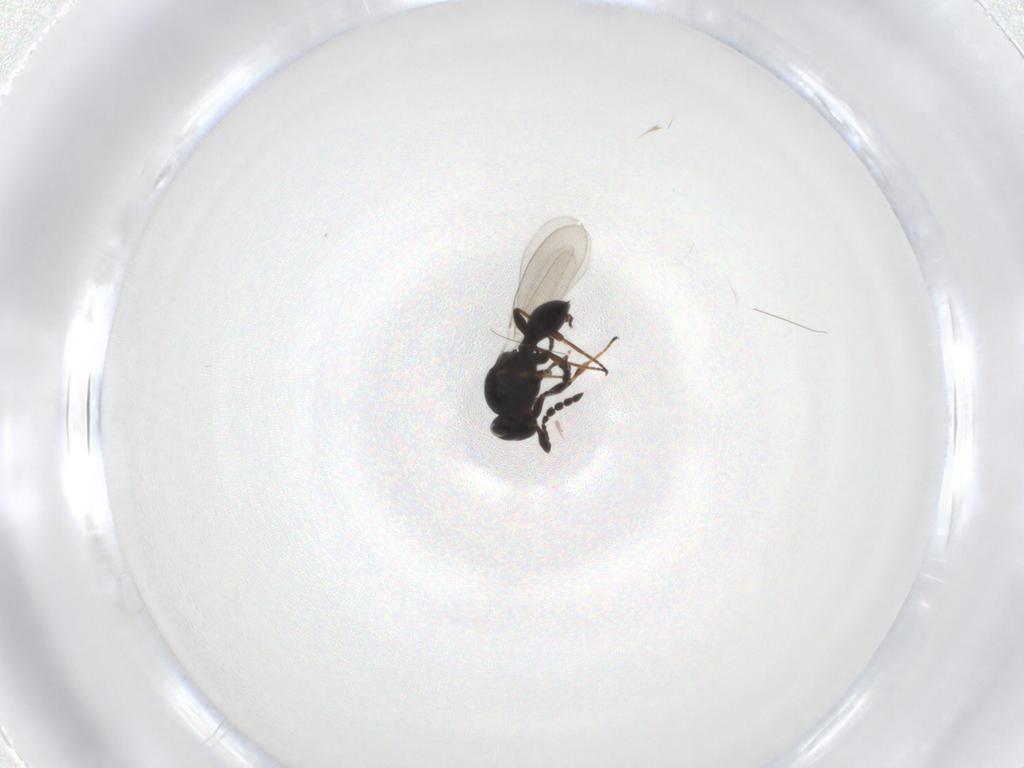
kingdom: Animalia
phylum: Arthropoda
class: Insecta
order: Hymenoptera
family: Platygastridae
